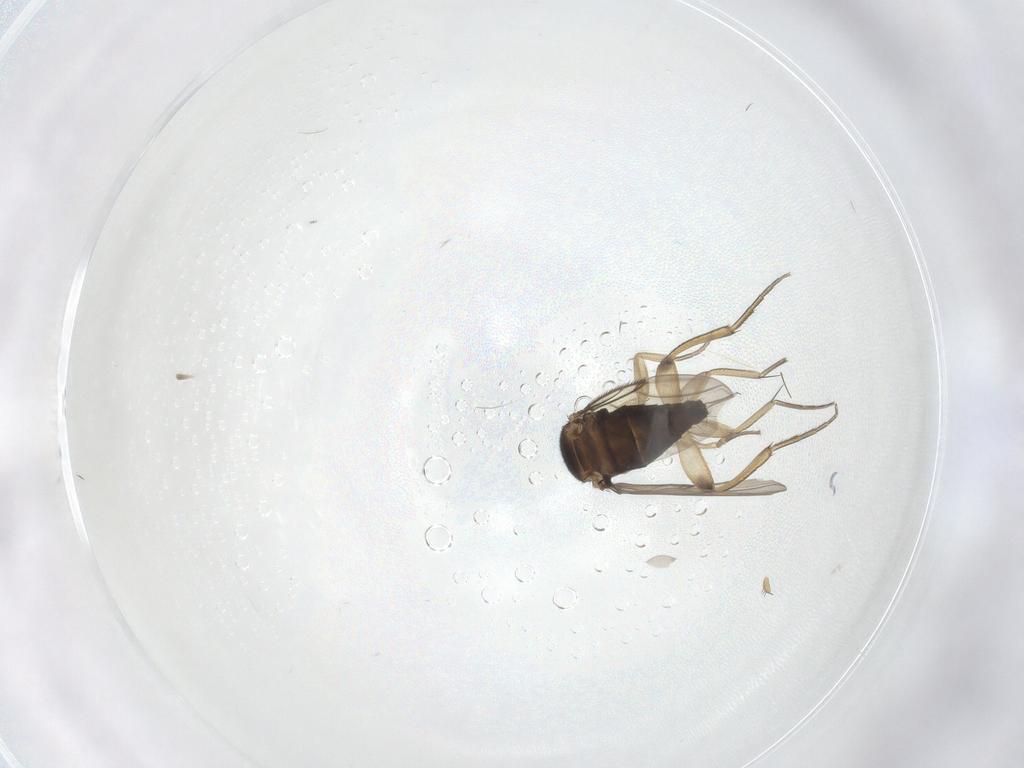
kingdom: Animalia
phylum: Arthropoda
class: Insecta
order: Diptera
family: Phoridae
